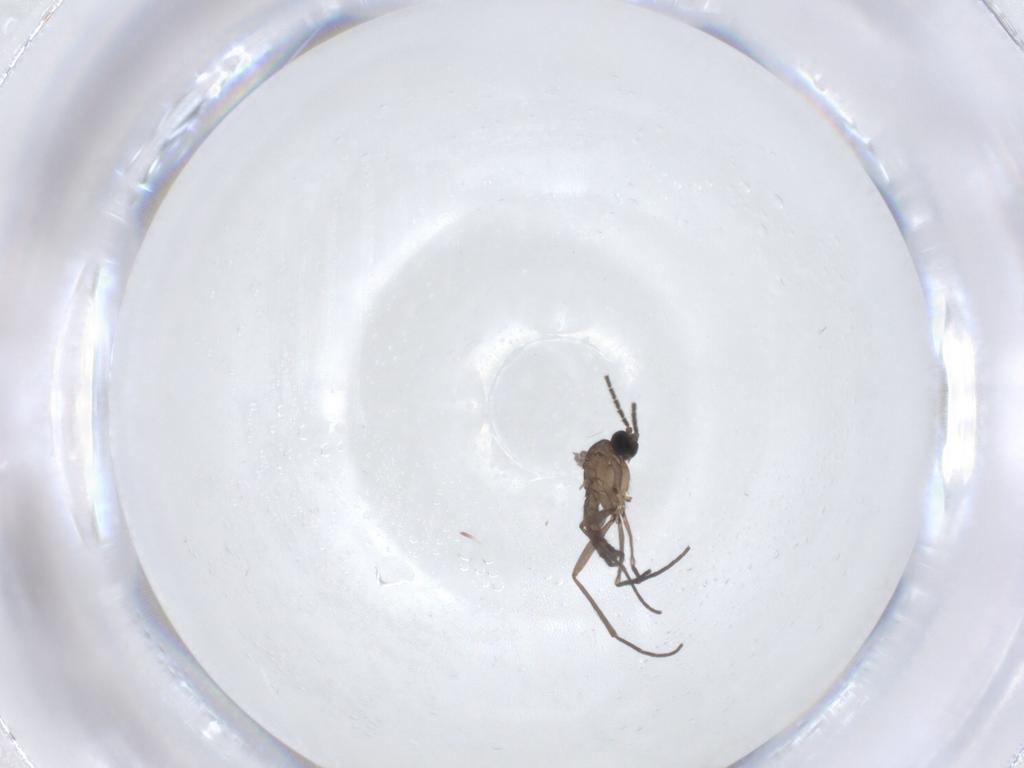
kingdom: Animalia
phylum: Arthropoda
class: Insecta
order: Diptera
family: Sciaridae
